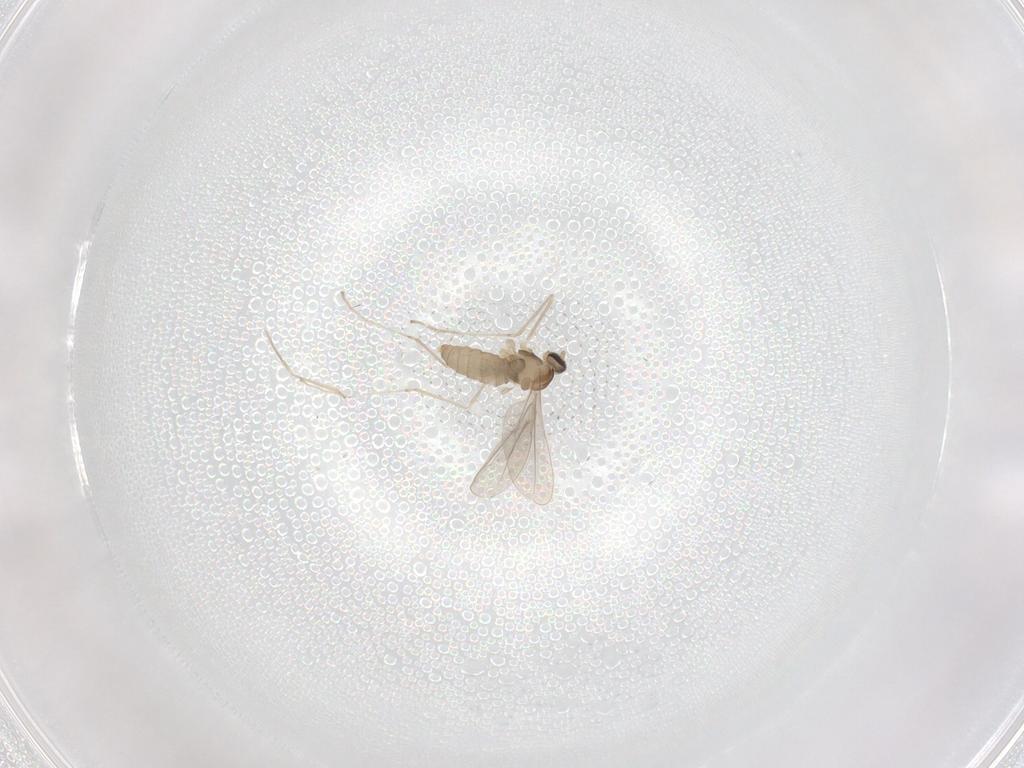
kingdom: Animalia
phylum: Arthropoda
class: Insecta
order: Diptera
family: Cecidomyiidae
